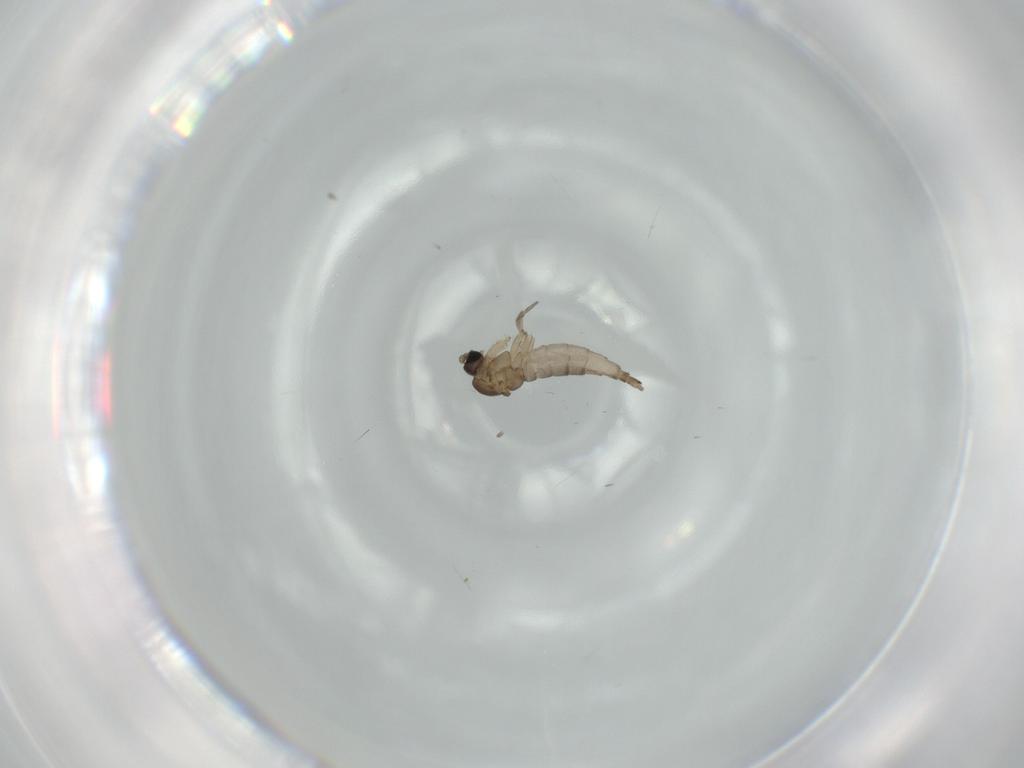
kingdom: Animalia
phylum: Arthropoda
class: Insecta
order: Diptera
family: Sciaridae
